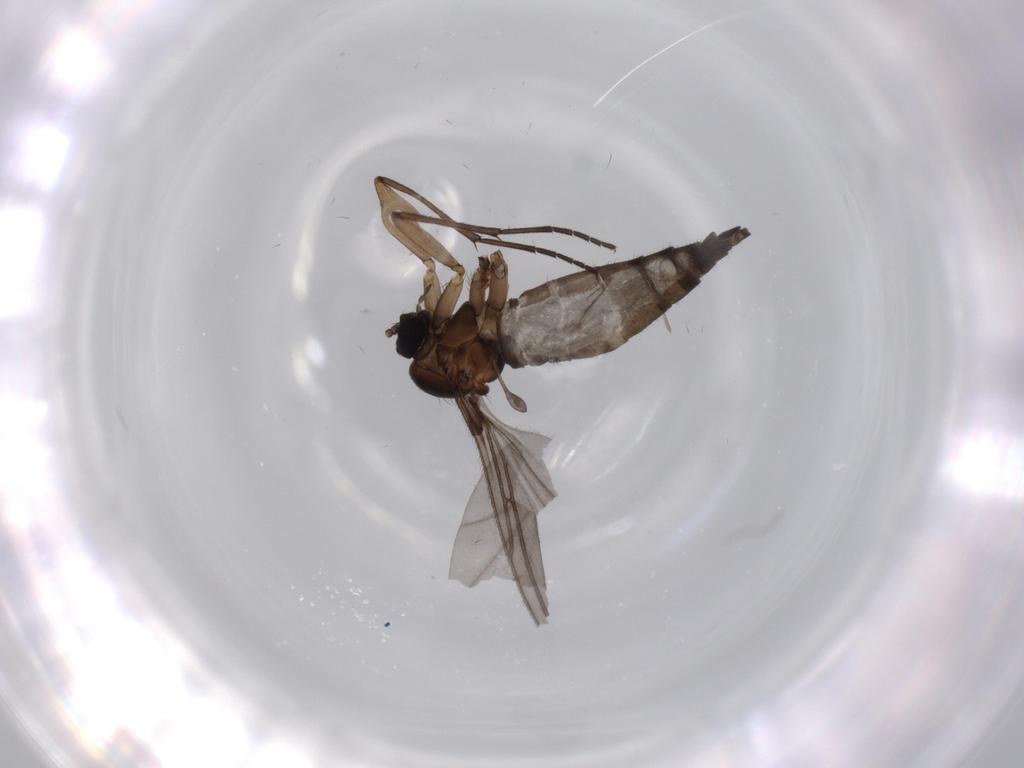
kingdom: Animalia
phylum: Arthropoda
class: Insecta
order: Diptera
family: Sciaridae
